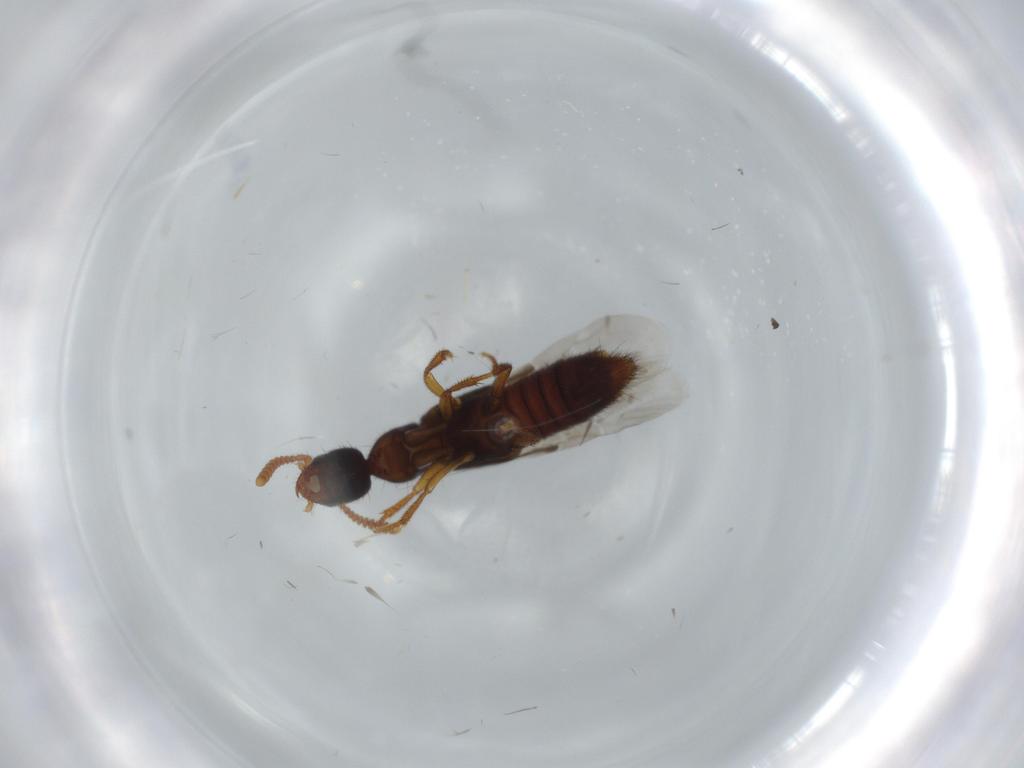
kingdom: Animalia
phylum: Arthropoda
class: Insecta
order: Coleoptera
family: Staphylinidae
